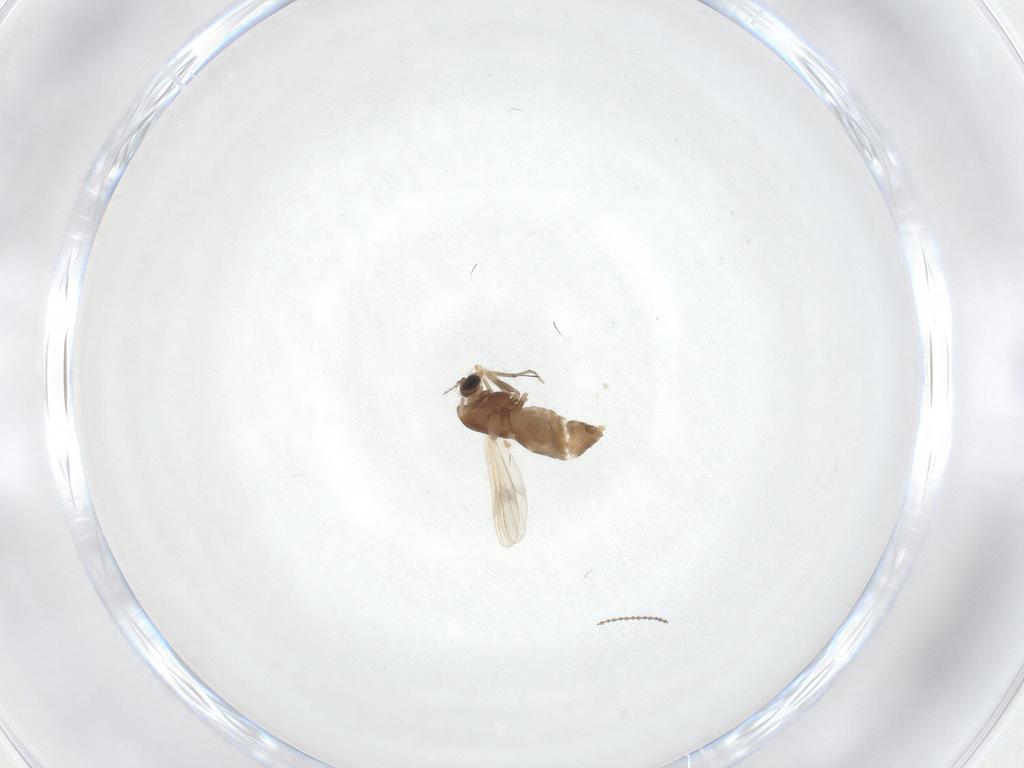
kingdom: Animalia
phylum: Arthropoda
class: Insecta
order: Diptera
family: Chironomidae
